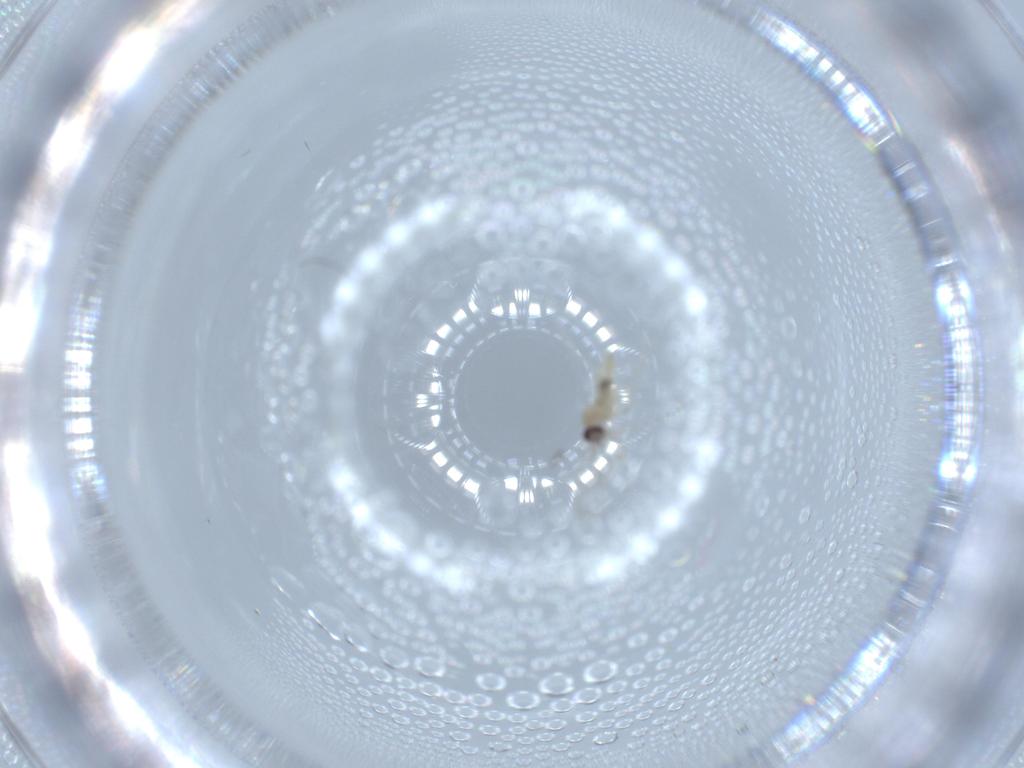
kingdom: Animalia
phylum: Arthropoda
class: Insecta
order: Diptera
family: Cecidomyiidae
